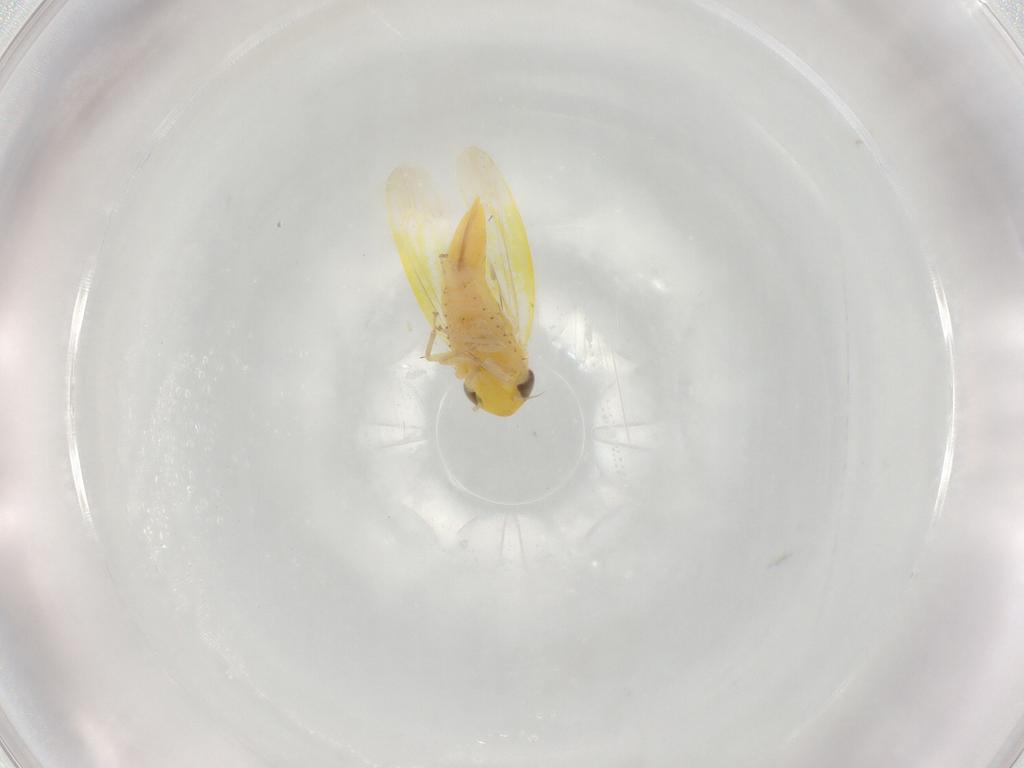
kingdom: Animalia
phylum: Arthropoda
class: Insecta
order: Hemiptera
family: Cicadellidae
